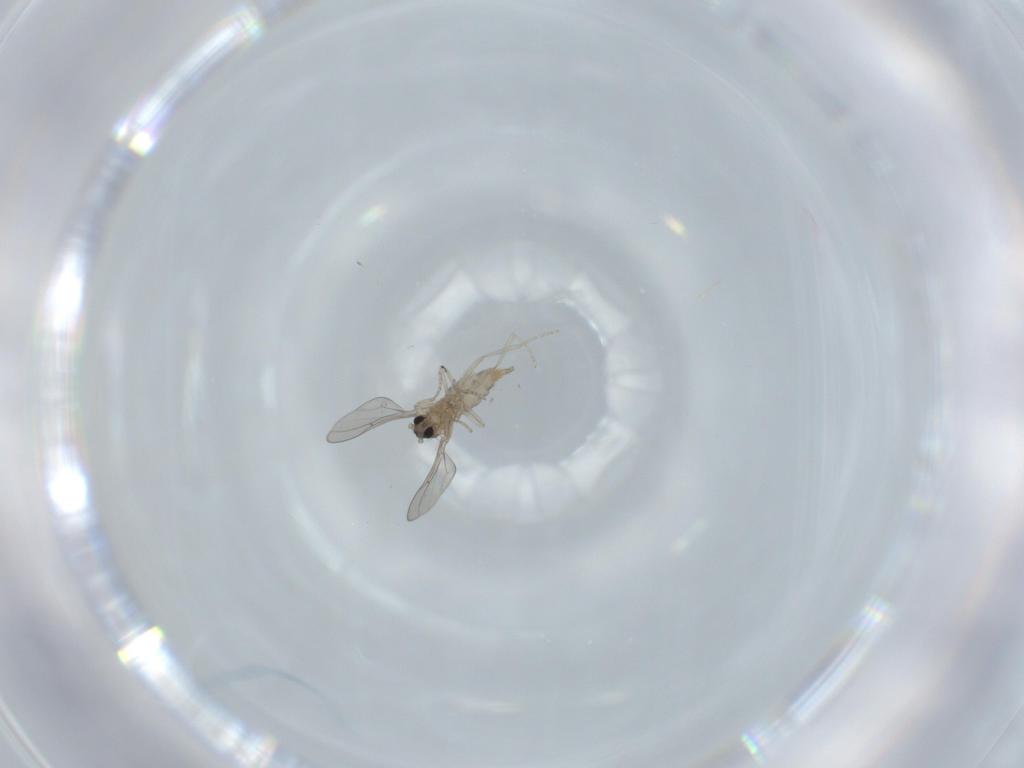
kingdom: Animalia
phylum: Arthropoda
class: Insecta
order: Diptera
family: Cecidomyiidae
